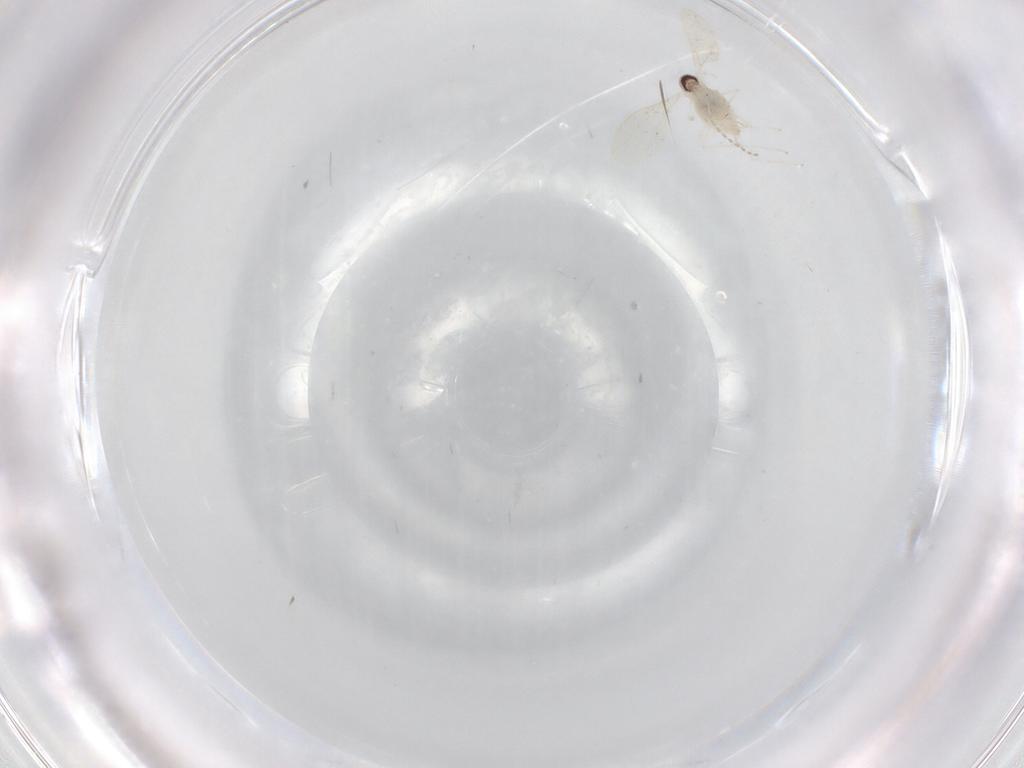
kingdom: Animalia
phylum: Arthropoda
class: Insecta
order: Diptera
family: Cecidomyiidae
